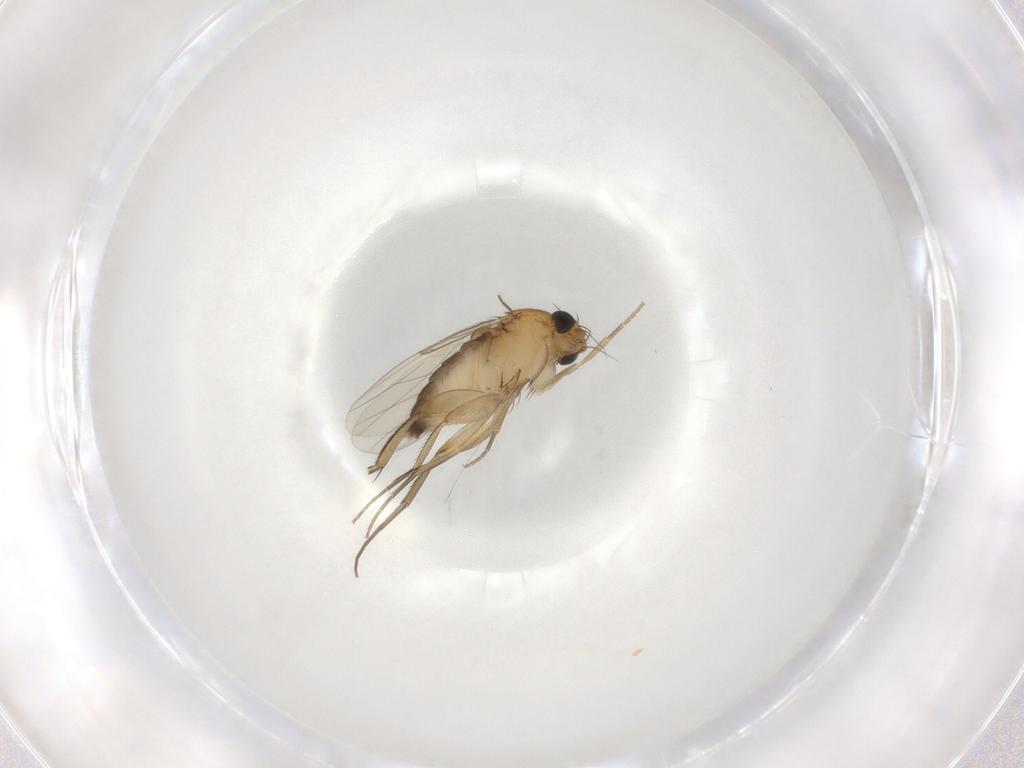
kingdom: Animalia
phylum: Arthropoda
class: Insecta
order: Diptera
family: Phoridae
